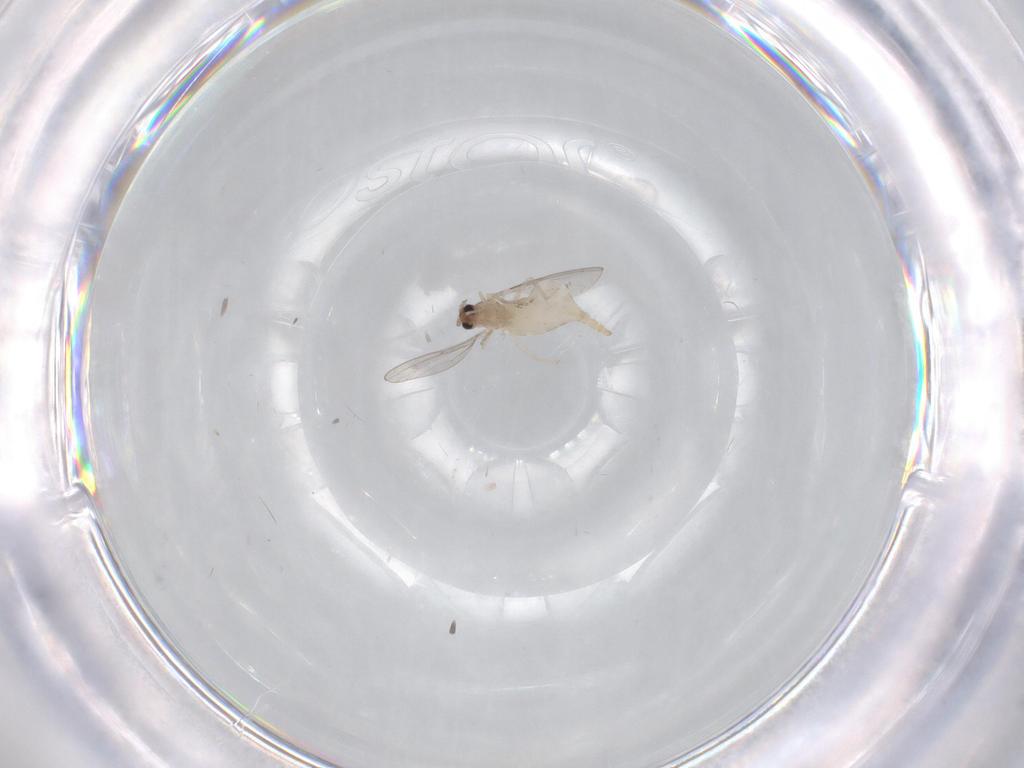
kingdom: Animalia
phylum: Arthropoda
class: Insecta
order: Diptera
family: Cecidomyiidae
